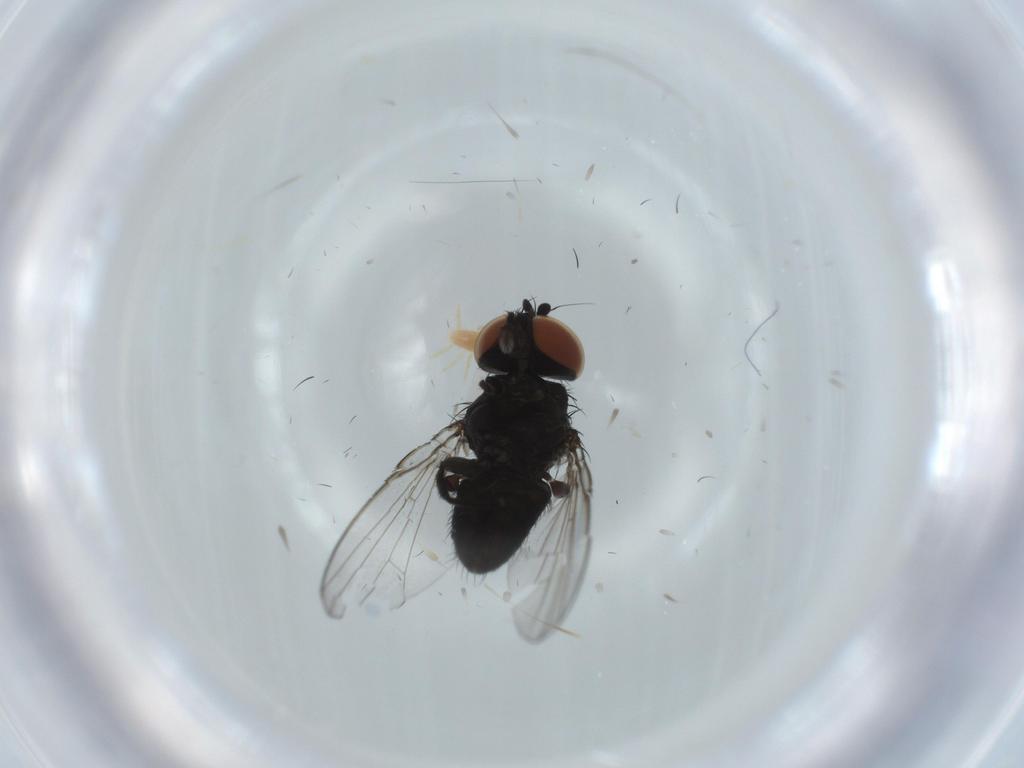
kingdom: Animalia
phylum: Arthropoda
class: Insecta
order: Diptera
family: Milichiidae
